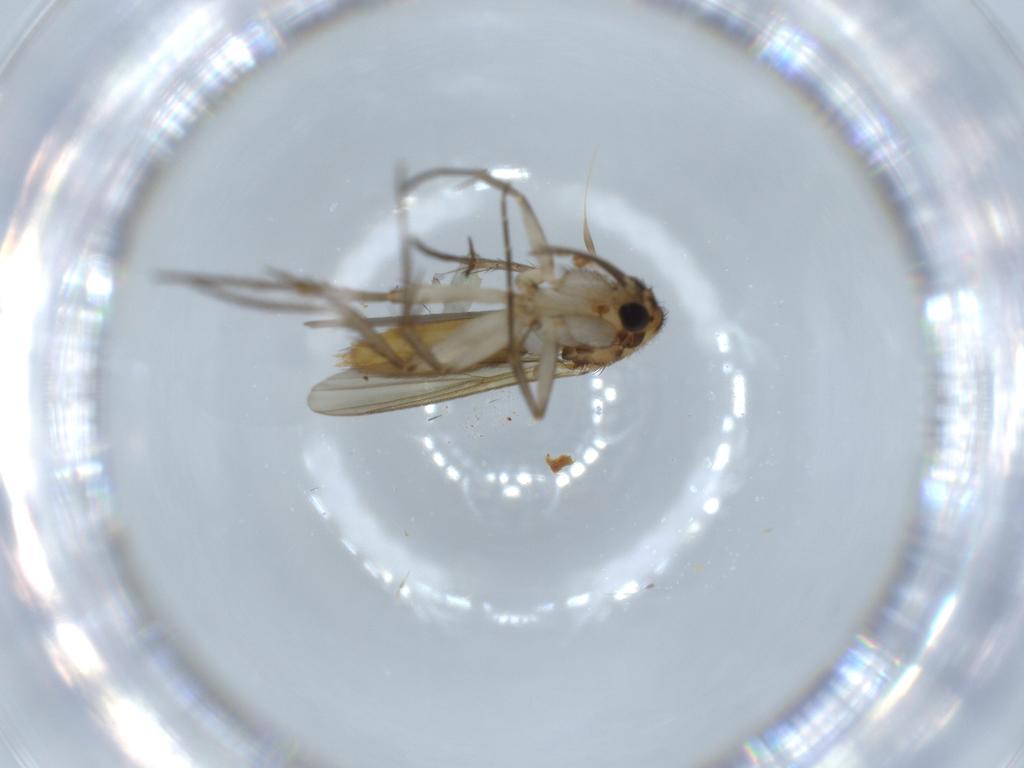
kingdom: Animalia
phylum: Arthropoda
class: Insecta
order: Diptera
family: Mycetophilidae
